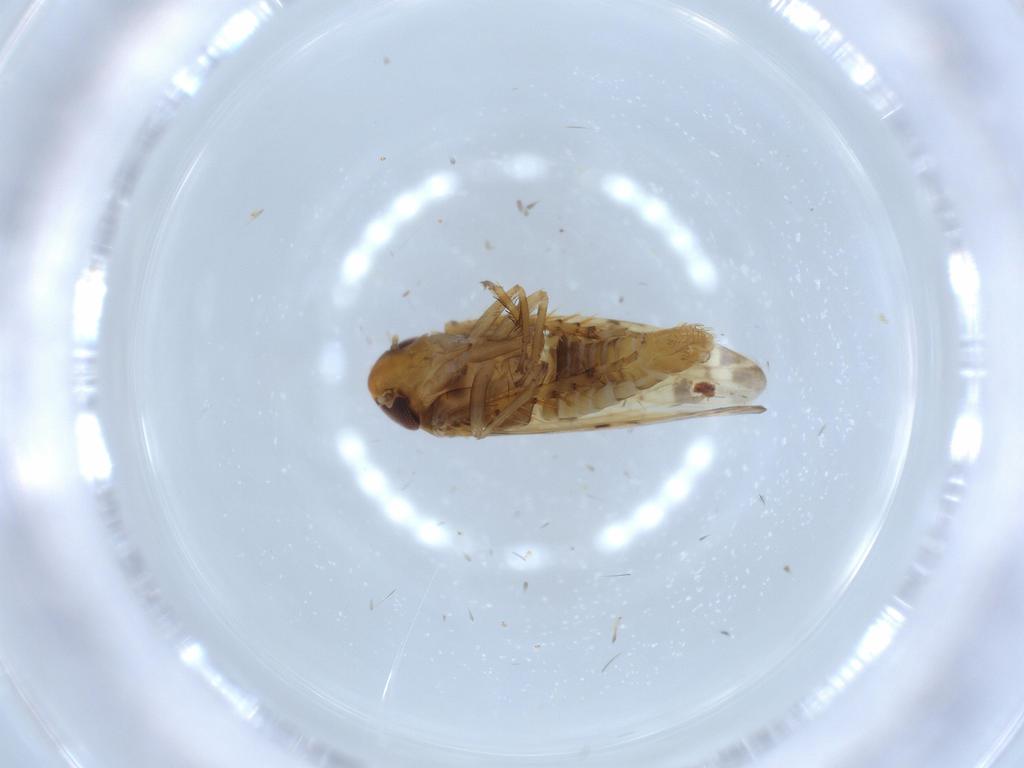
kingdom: Animalia
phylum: Arthropoda
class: Insecta
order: Hemiptera
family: Cicadellidae
